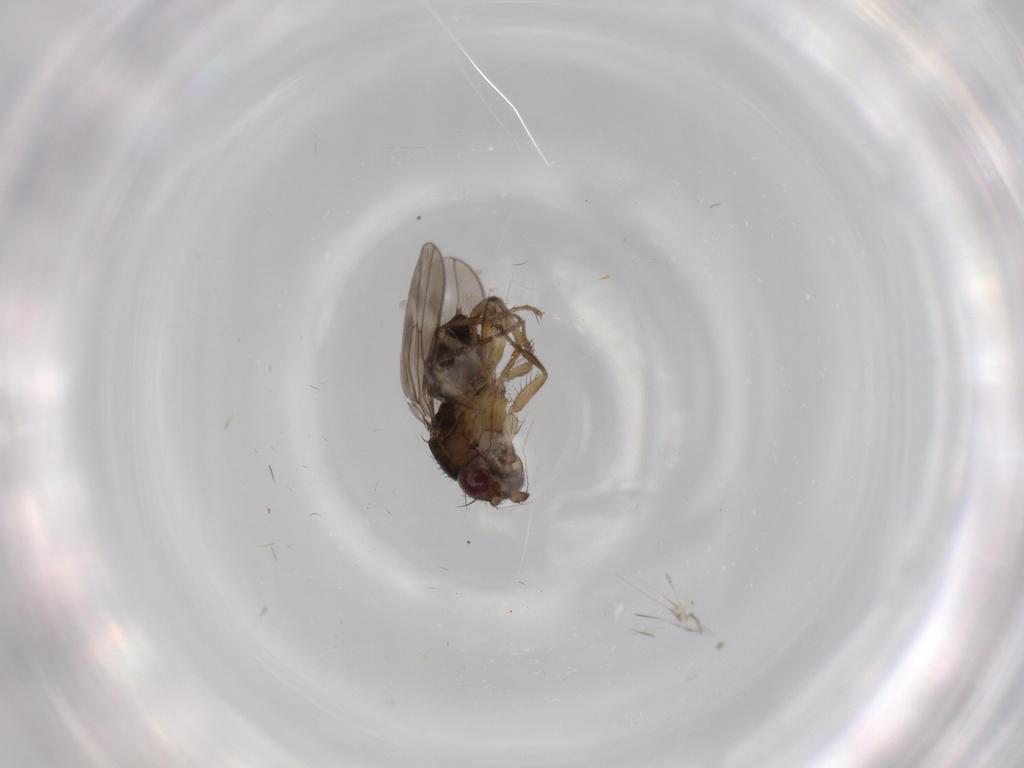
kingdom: Animalia
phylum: Arthropoda
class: Insecta
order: Diptera
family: Sphaeroceridae
